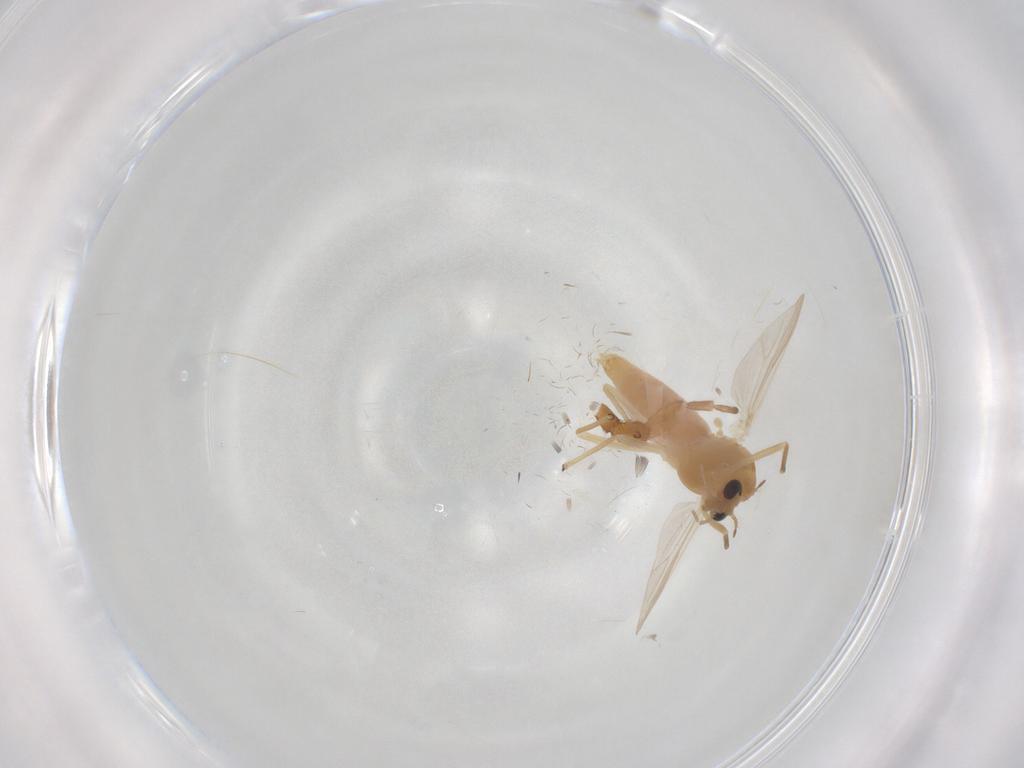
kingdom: Animalia
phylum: Arthropoda
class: Insecta
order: Diptera
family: Chironomidae
